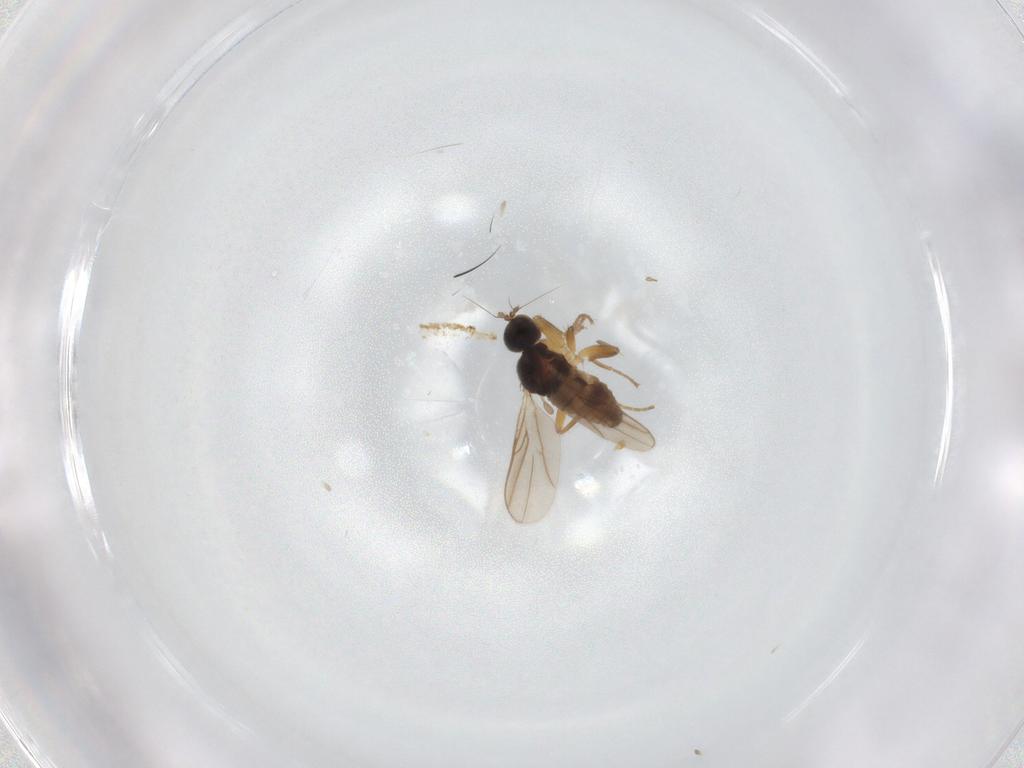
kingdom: Animalia
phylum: Arthropoda
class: Insecta
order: Diptera
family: Hybotidae
